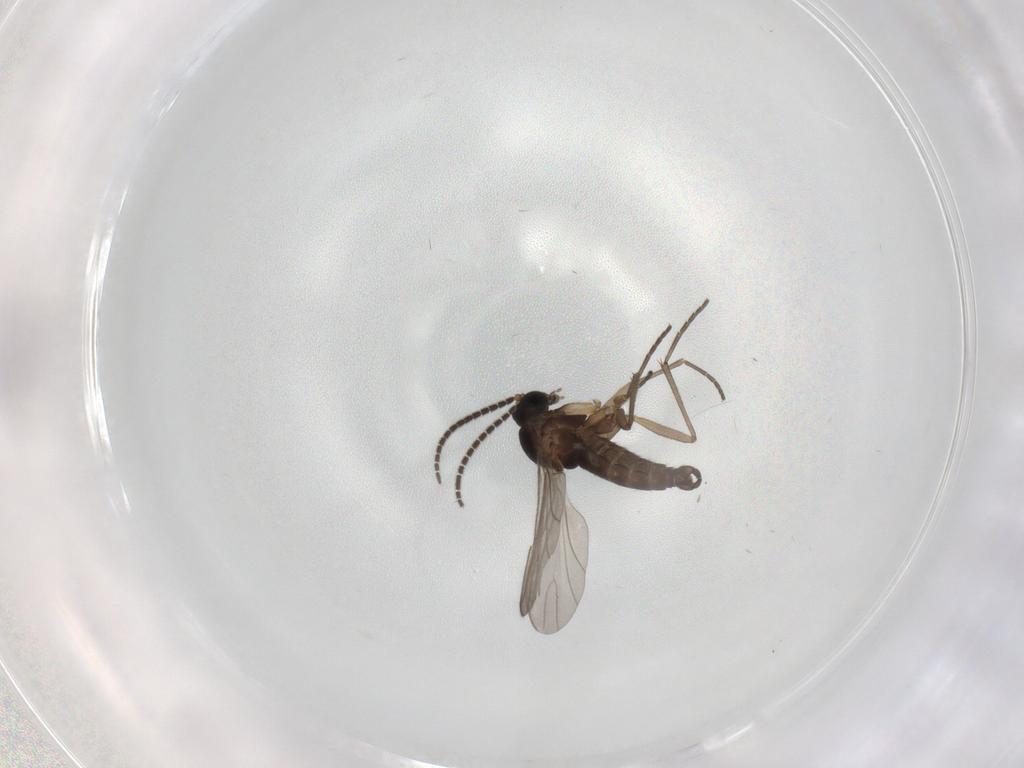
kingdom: Animalia
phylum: Arthropoda
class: Insecta
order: Diptera
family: Sciaridae
